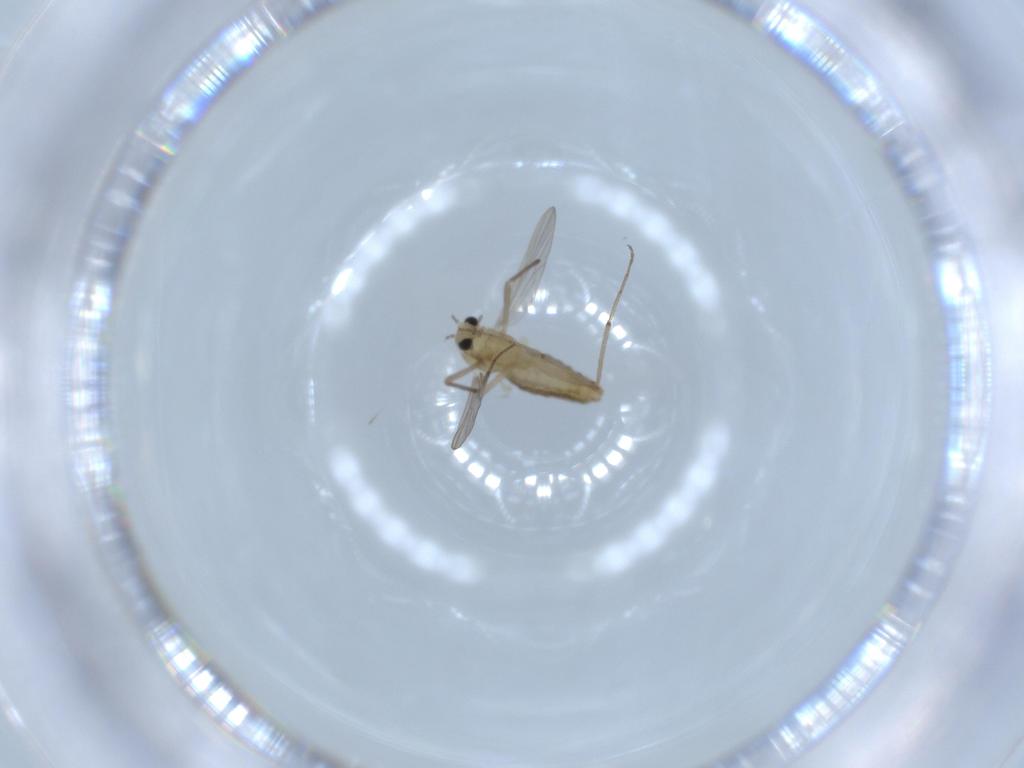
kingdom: Animalia
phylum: Arthropoda
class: Insecta
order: Diptera
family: Chironomidae
